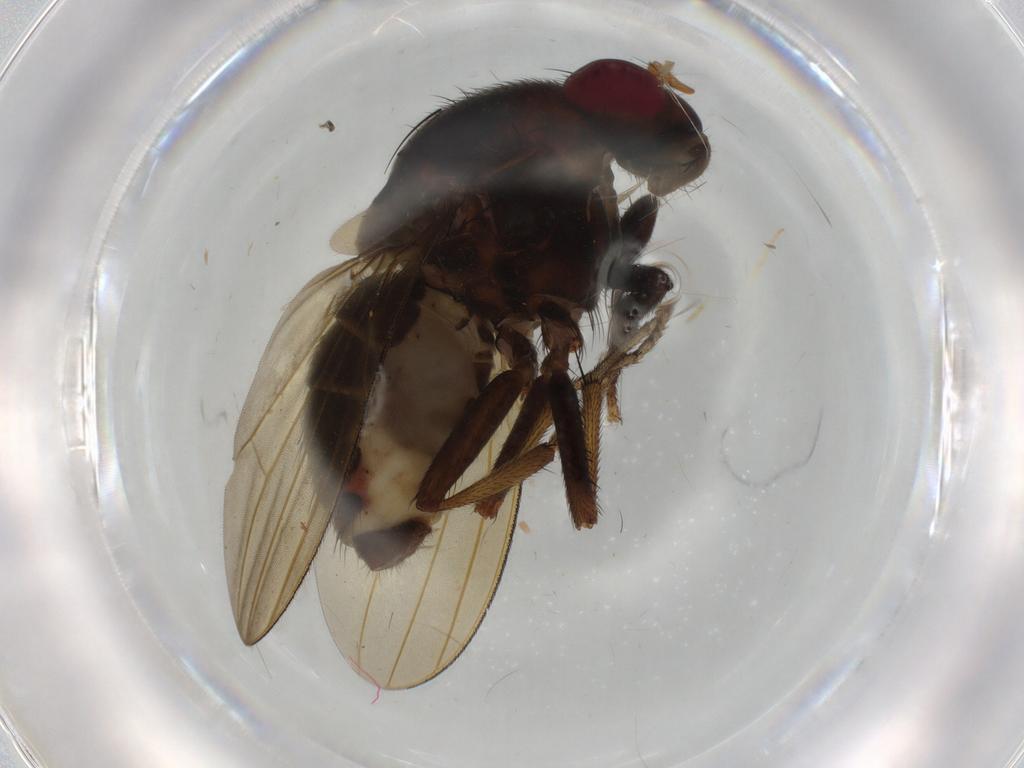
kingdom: Animalia
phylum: Arthropoda
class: Insecta
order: Diptera
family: Lauxaniidae
